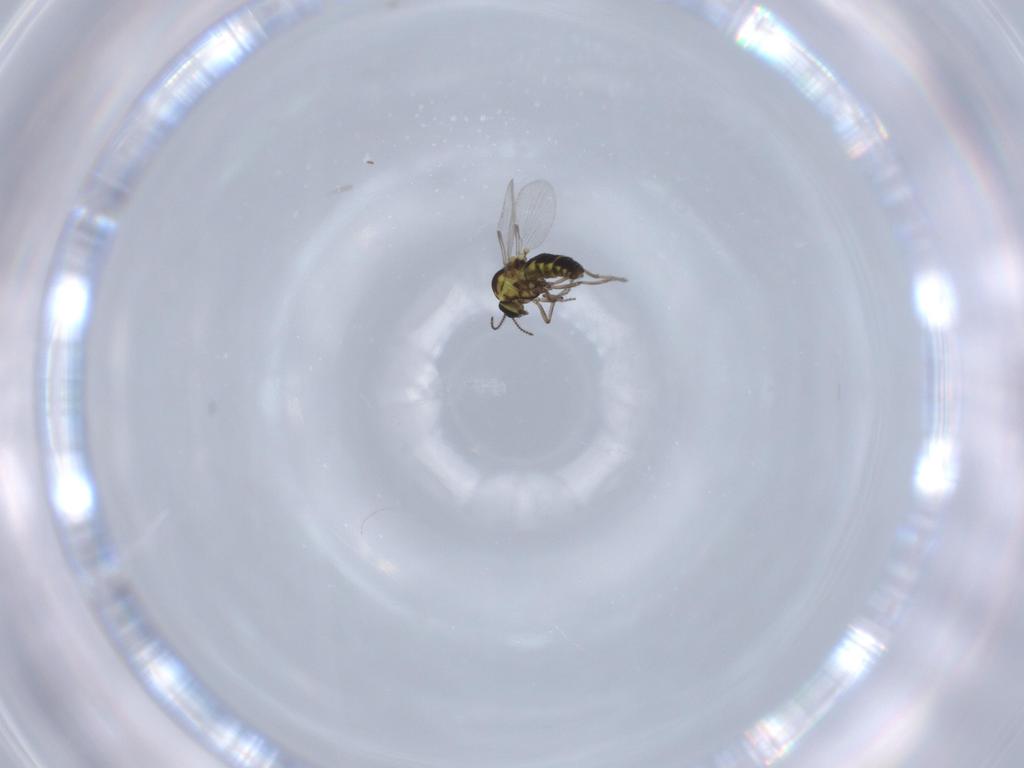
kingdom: Animalia
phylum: Arthropoda
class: Insecta
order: Diptera
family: Ceratopogonidae
